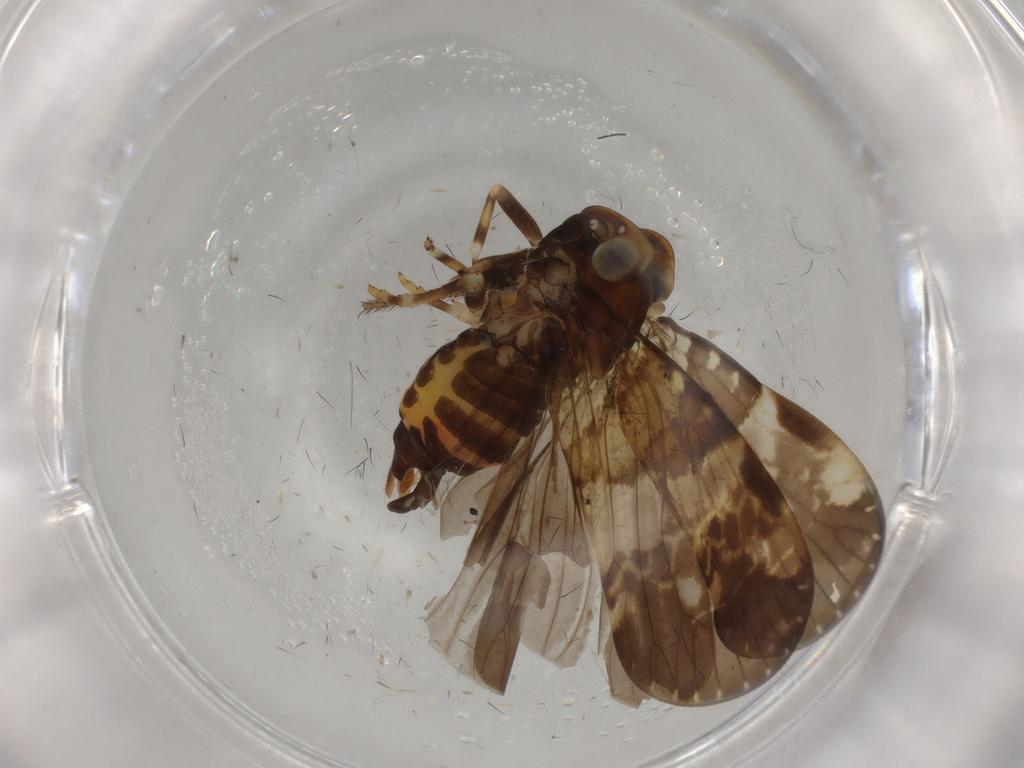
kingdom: Animalia
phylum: Arthropoda
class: Insecta
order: Hemiptera
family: Cixiidae
